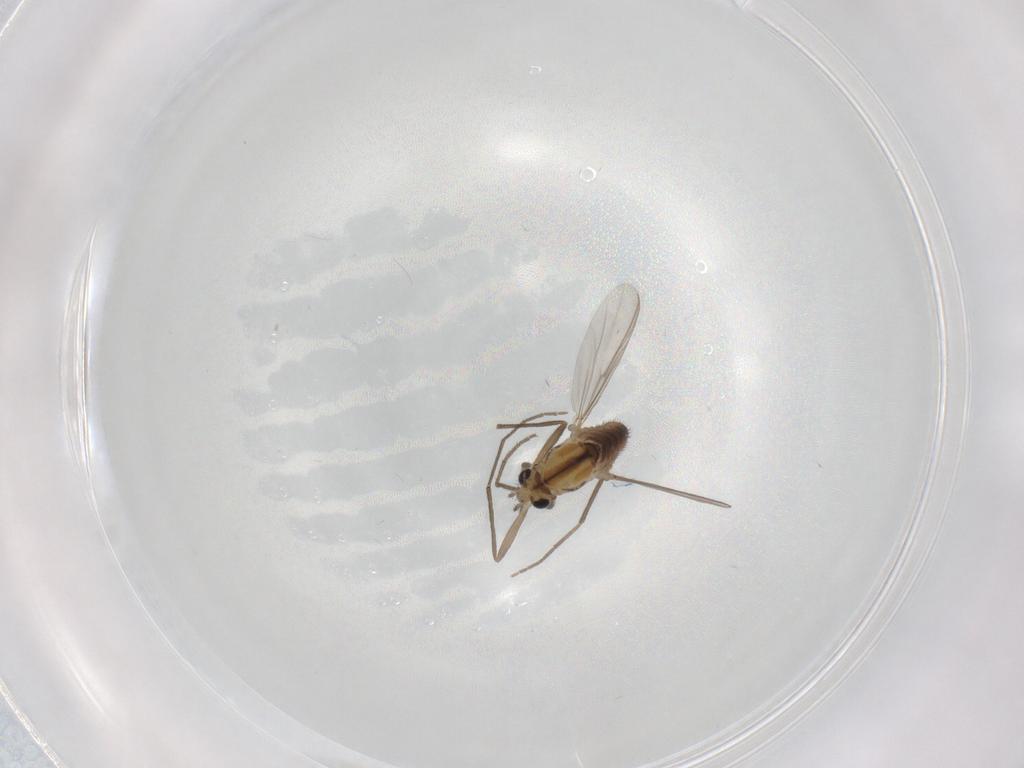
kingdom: Animalia
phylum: Arthropoda
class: Insecta
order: Diptera
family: Chironomidae
